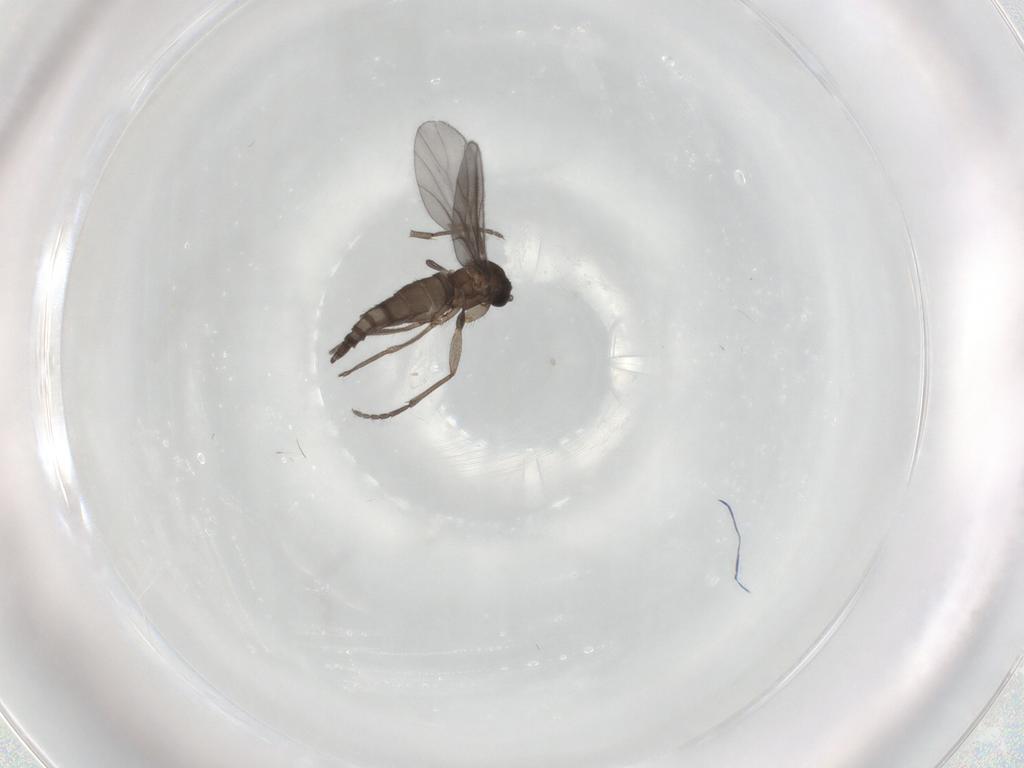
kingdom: Animalia
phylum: Arthropoda
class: Insecta
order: Diptera
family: Sciaridae
